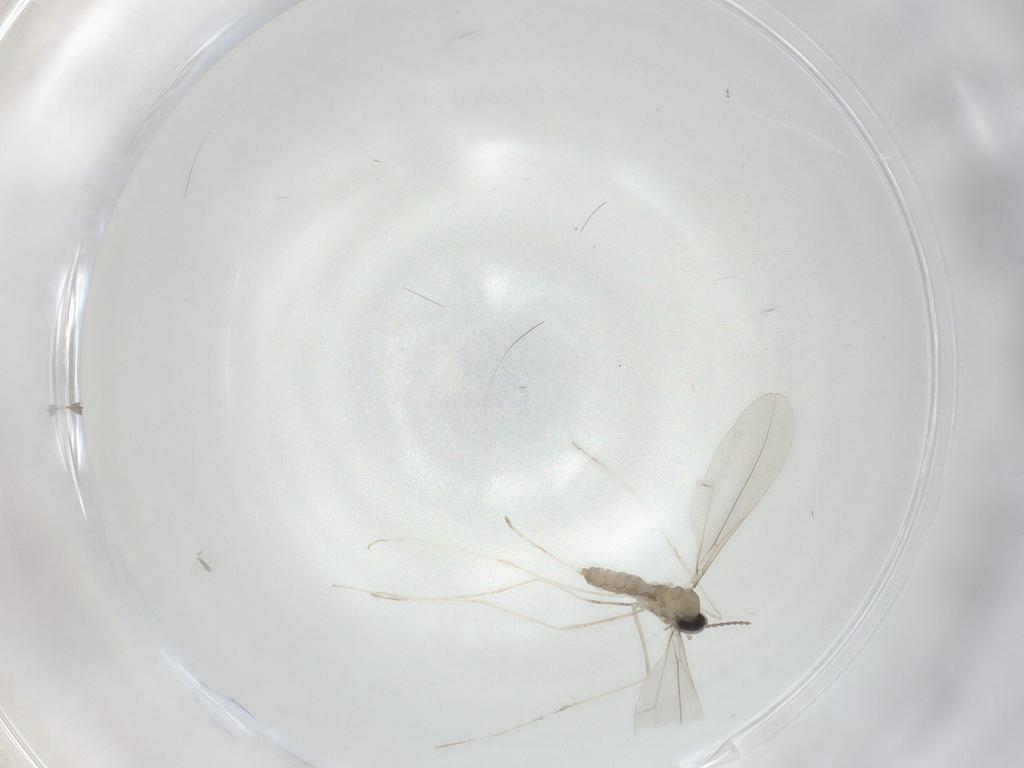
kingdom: Animalia
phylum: Arthropoda
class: Insecta
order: Diptera
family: Cecidomyiidae
